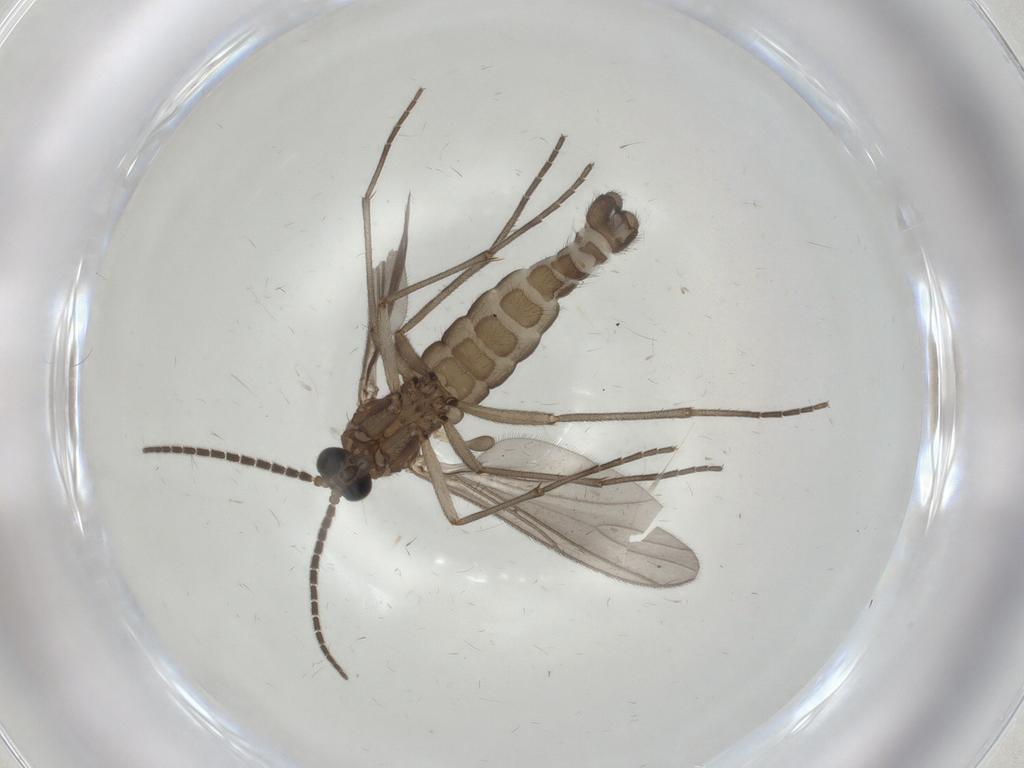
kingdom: Animalia
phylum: Arthropoda
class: Insecta
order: Diptera
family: Sciaridae
